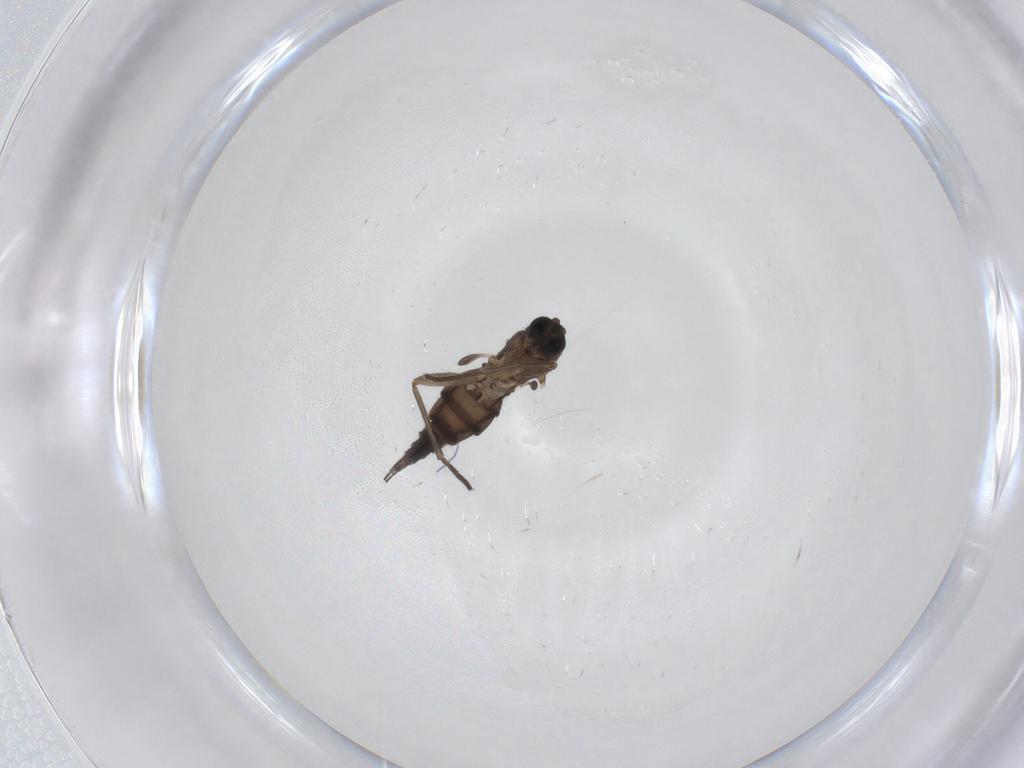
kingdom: Animalia
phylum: Arthropoda
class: Insecta
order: Diptera
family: Sciaridae
